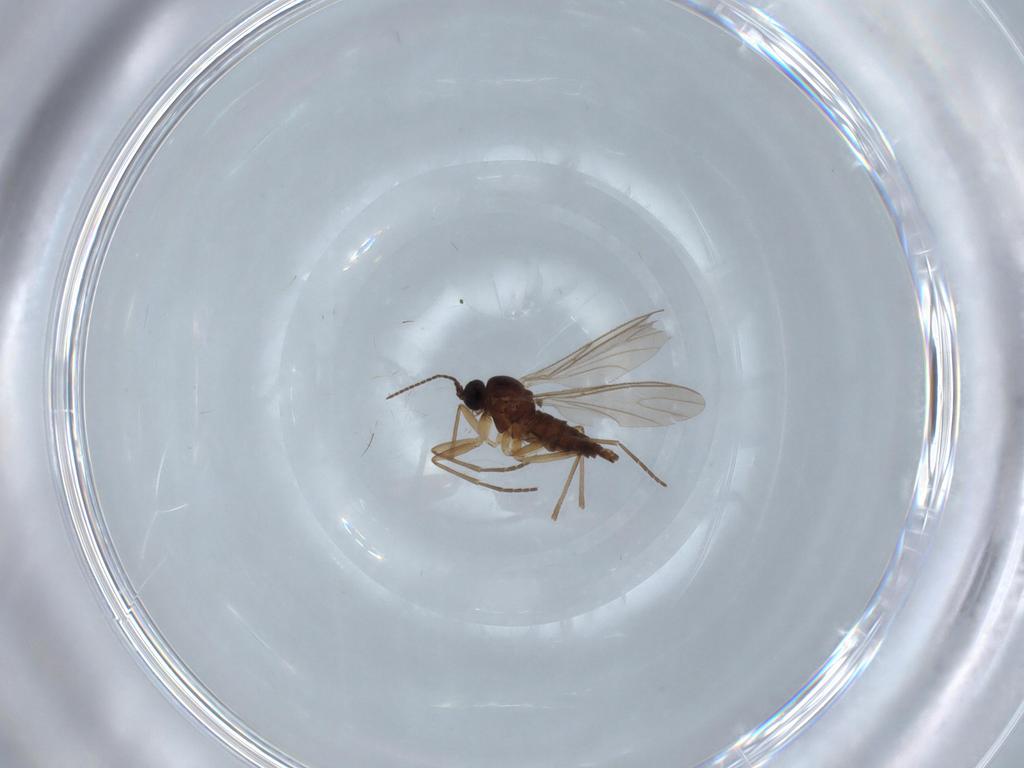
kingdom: Animalia
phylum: Arthropoda
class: Insecta
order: Diptera
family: Sciaridae
